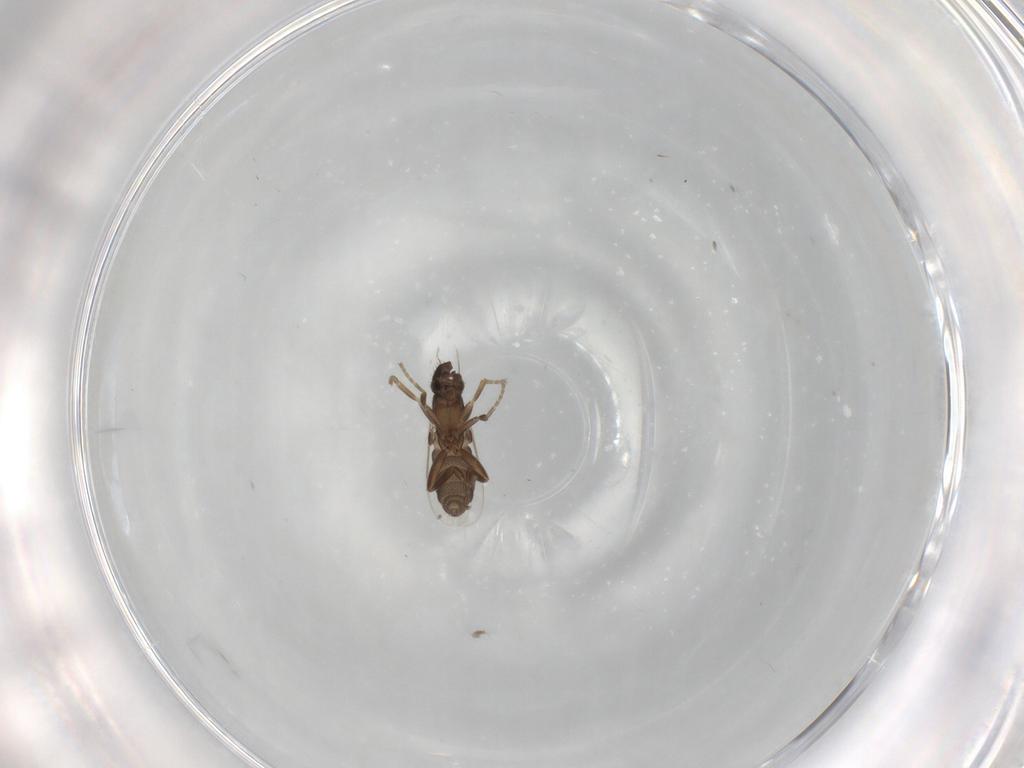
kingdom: Animalia
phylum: Arthropoda
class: Insecta
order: Diptera
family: Phoridae
